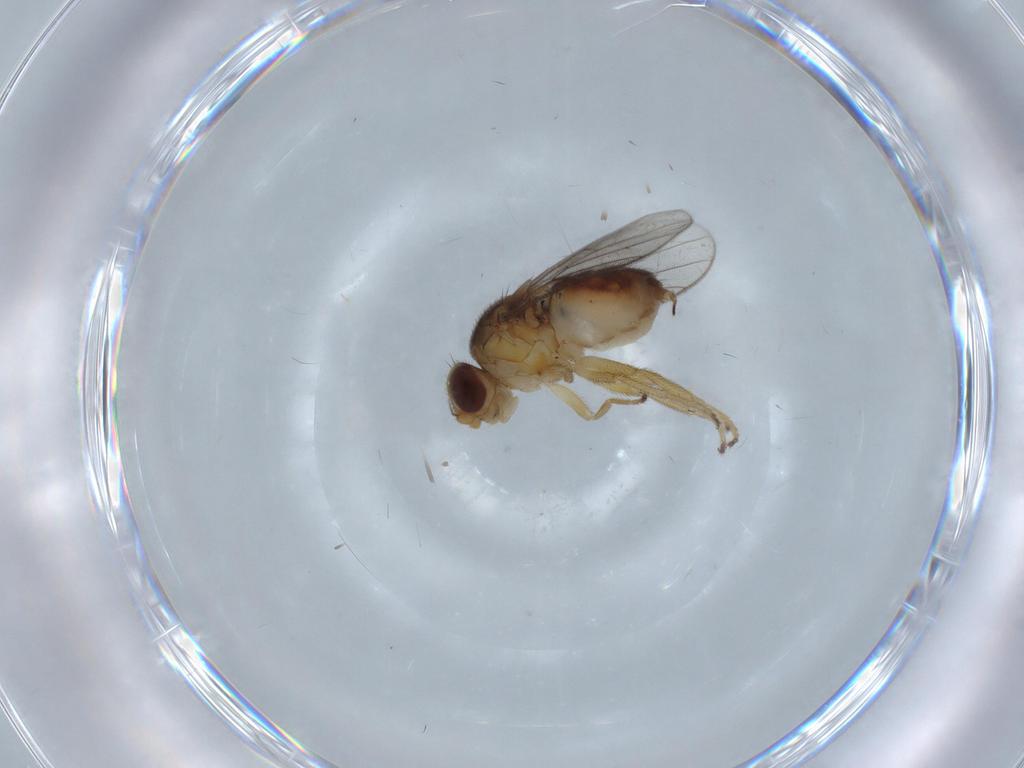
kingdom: Animalia
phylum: Arthropoda
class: Insecta
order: Diptera
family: Chloropidae
